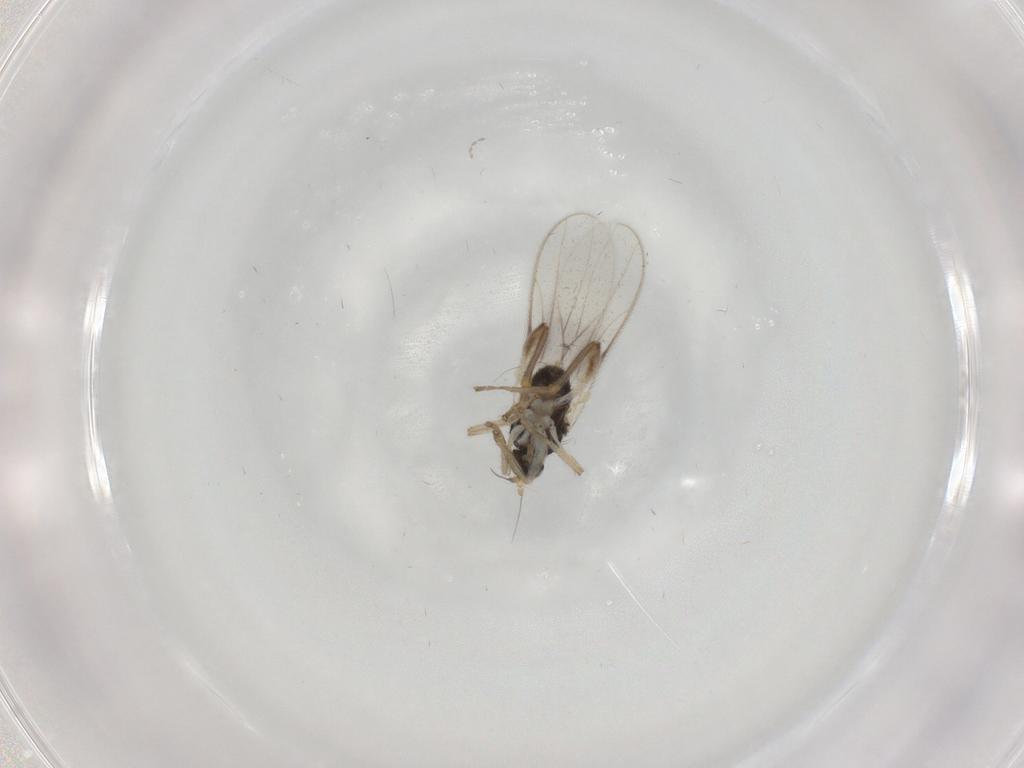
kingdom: Animalia
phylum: Arthropoda
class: Insecta
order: Diptera
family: Hybotidae
